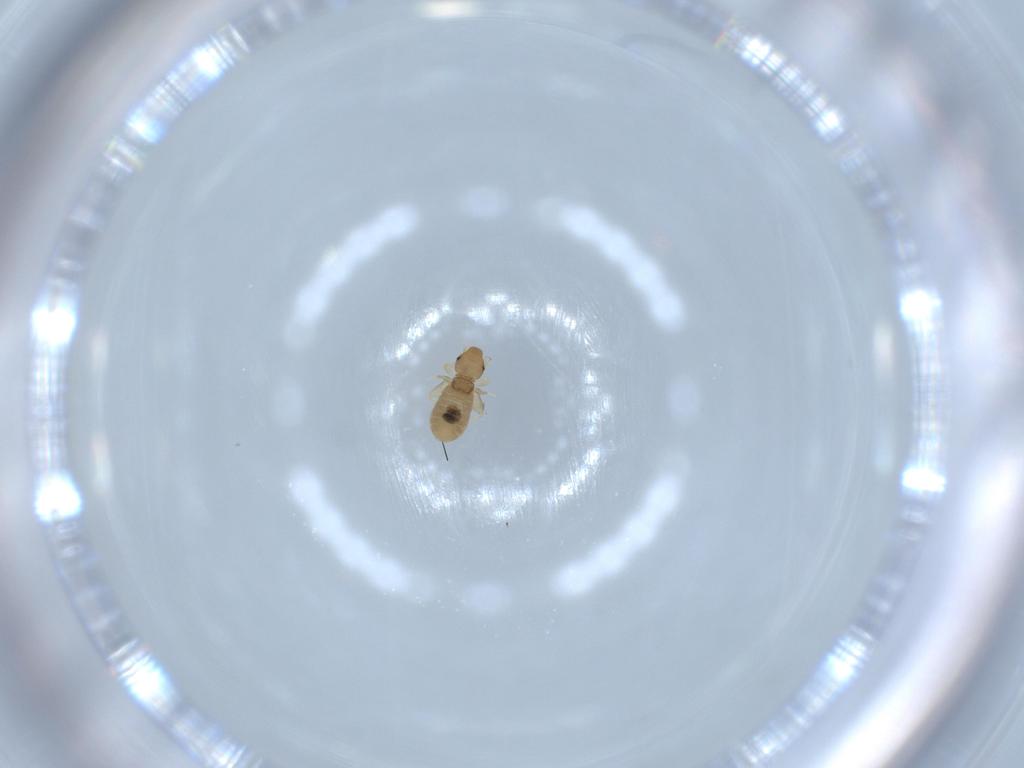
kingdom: Animalia
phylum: Arthropoda
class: Insecta
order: Psocodea
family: Liposcelididae
